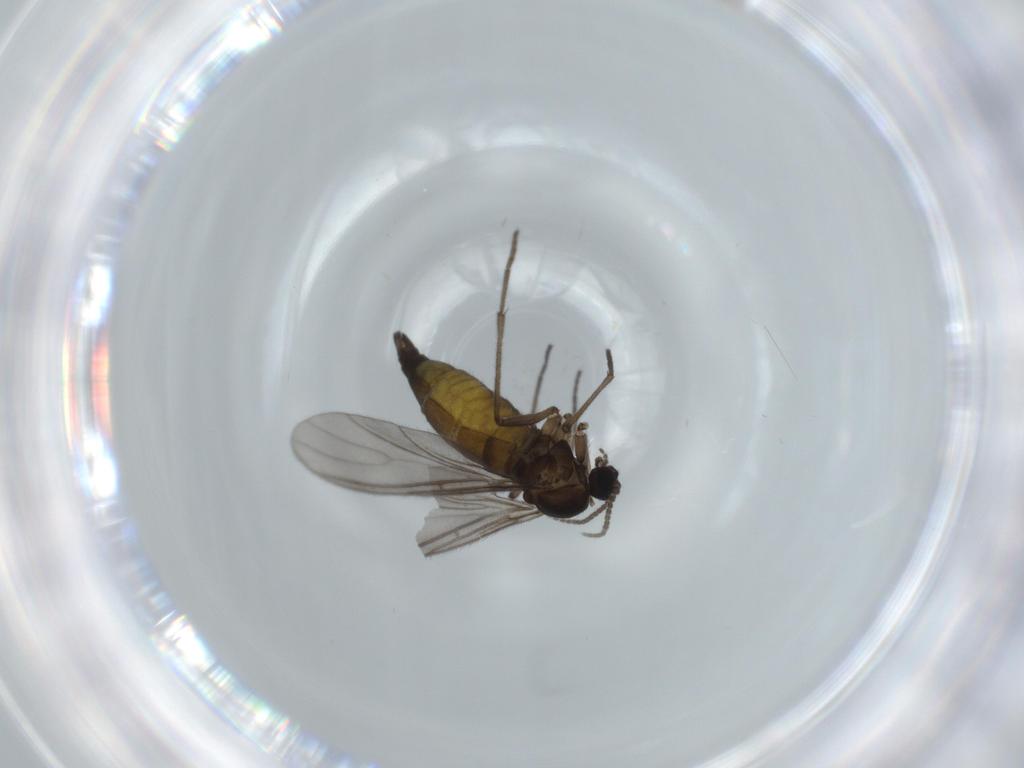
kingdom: Animalia
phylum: Arthropoda
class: Insecta
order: Diptera
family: Sciaridae
